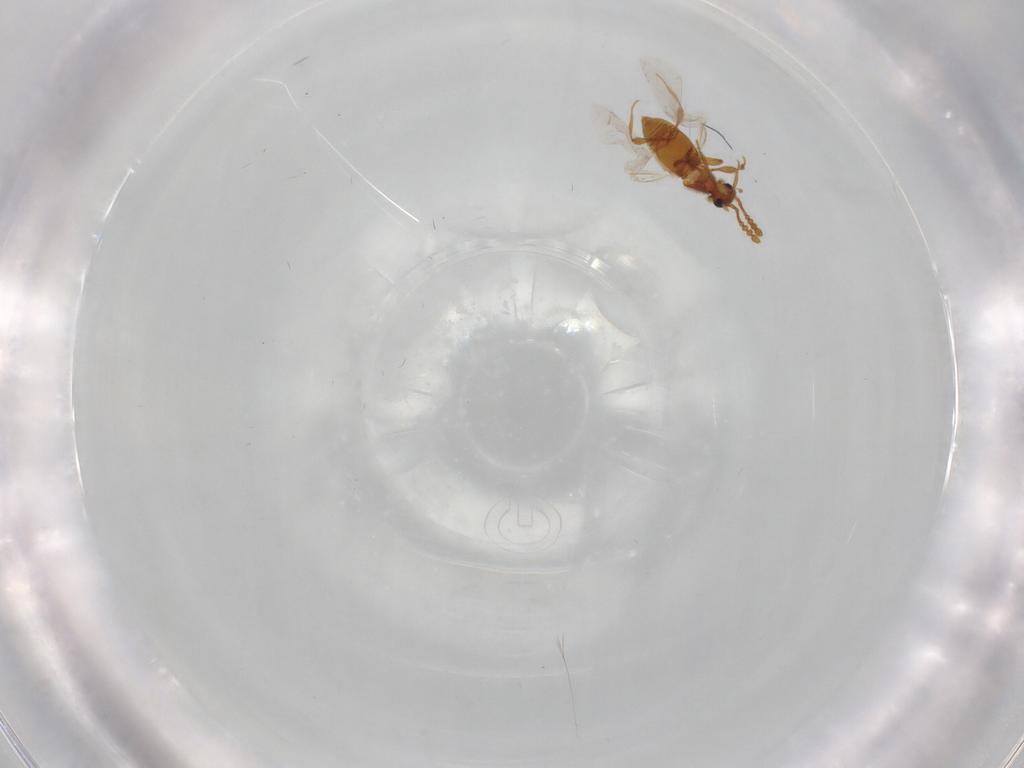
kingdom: Animalia
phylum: Arthropoda
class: Insecta
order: Coleoptera
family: Staphylinidae
